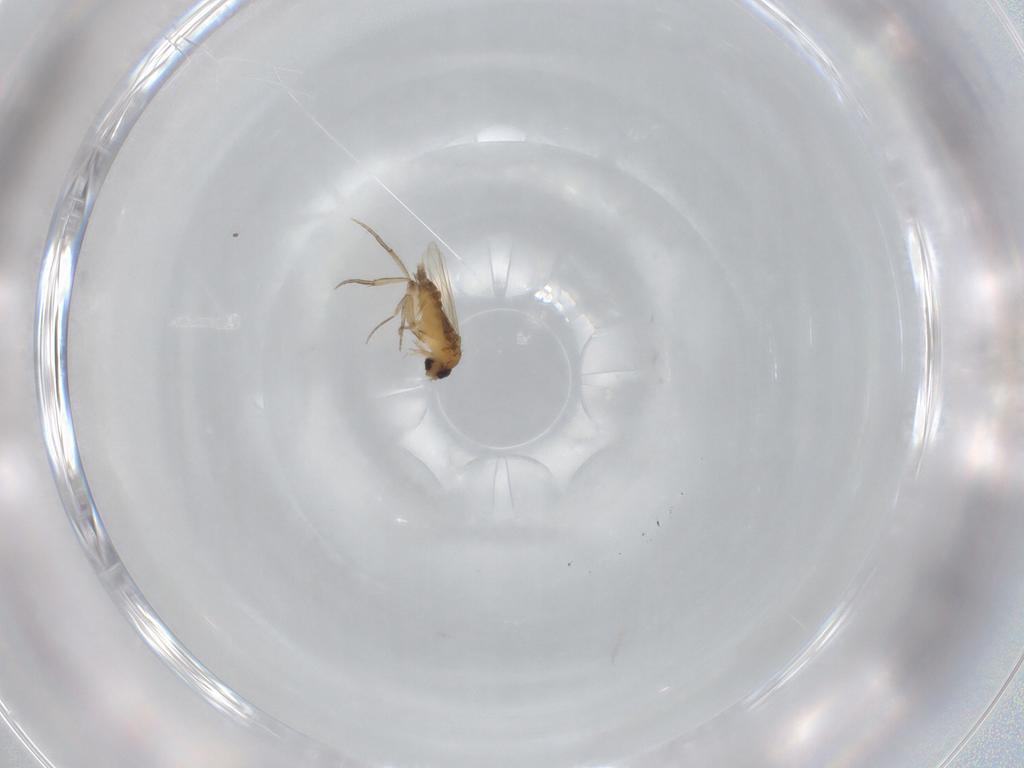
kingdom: Animalia
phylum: Arthropoda
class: Insecta
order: Diptera
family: Phoridae
